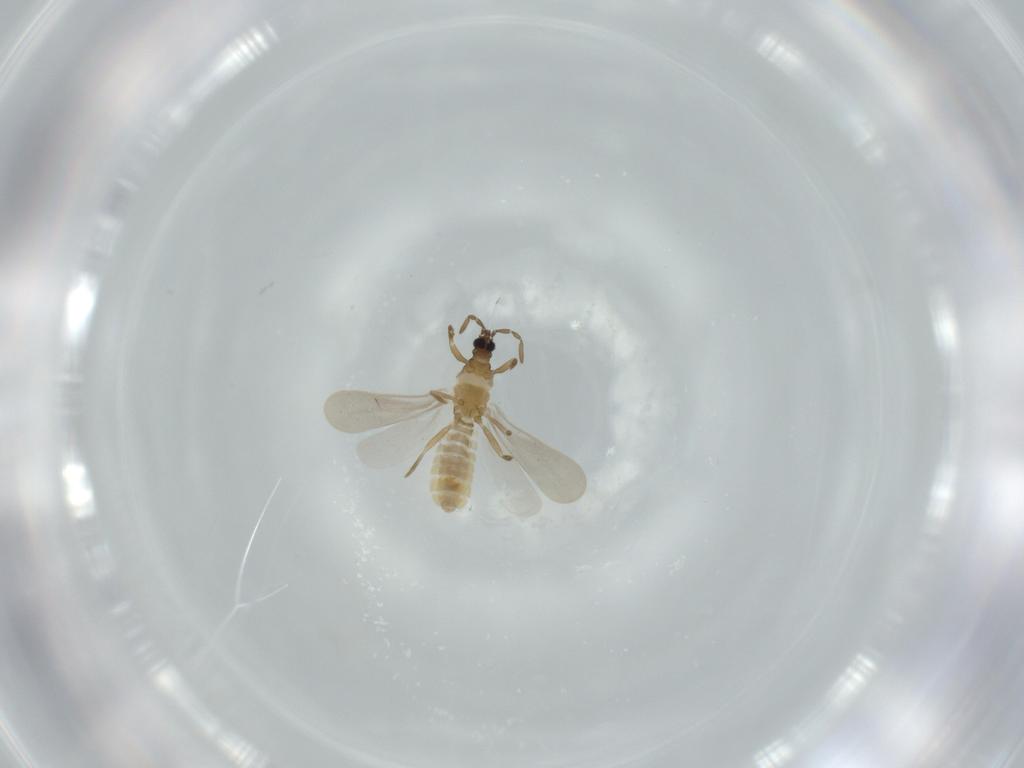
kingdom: Animalia
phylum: Arthropoda
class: Insecta
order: Hemiptera
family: Enicocephalidae
